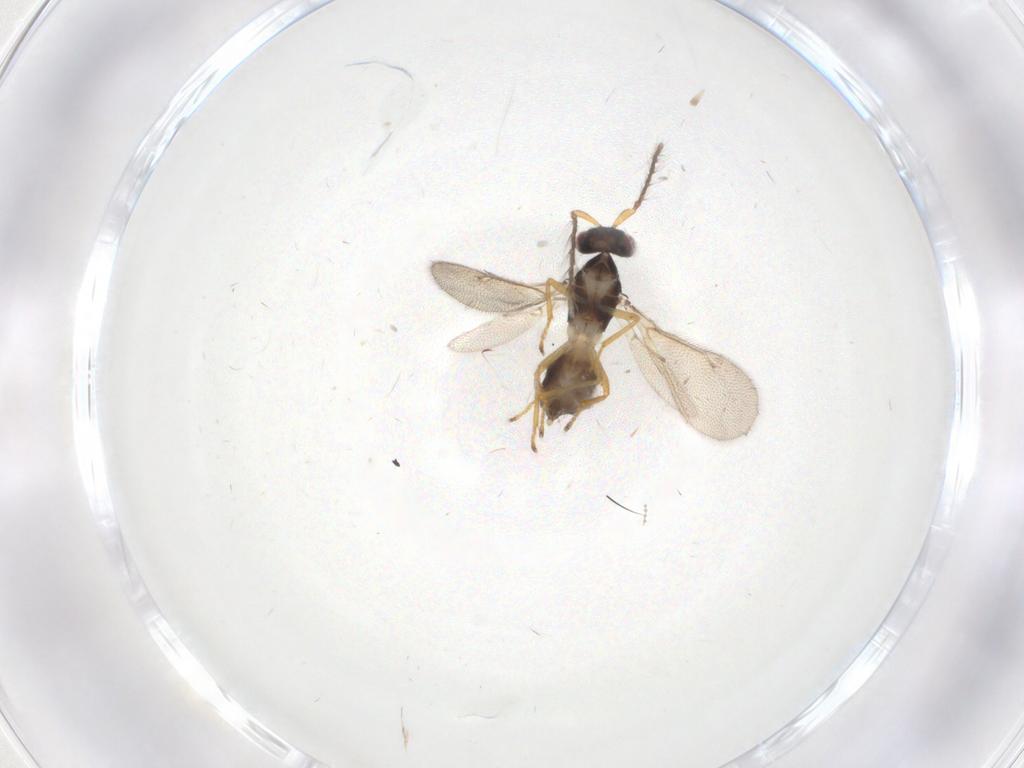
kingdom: Animalia
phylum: Arthropoda
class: Insecta
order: Hymenoptera
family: Eulophidae
